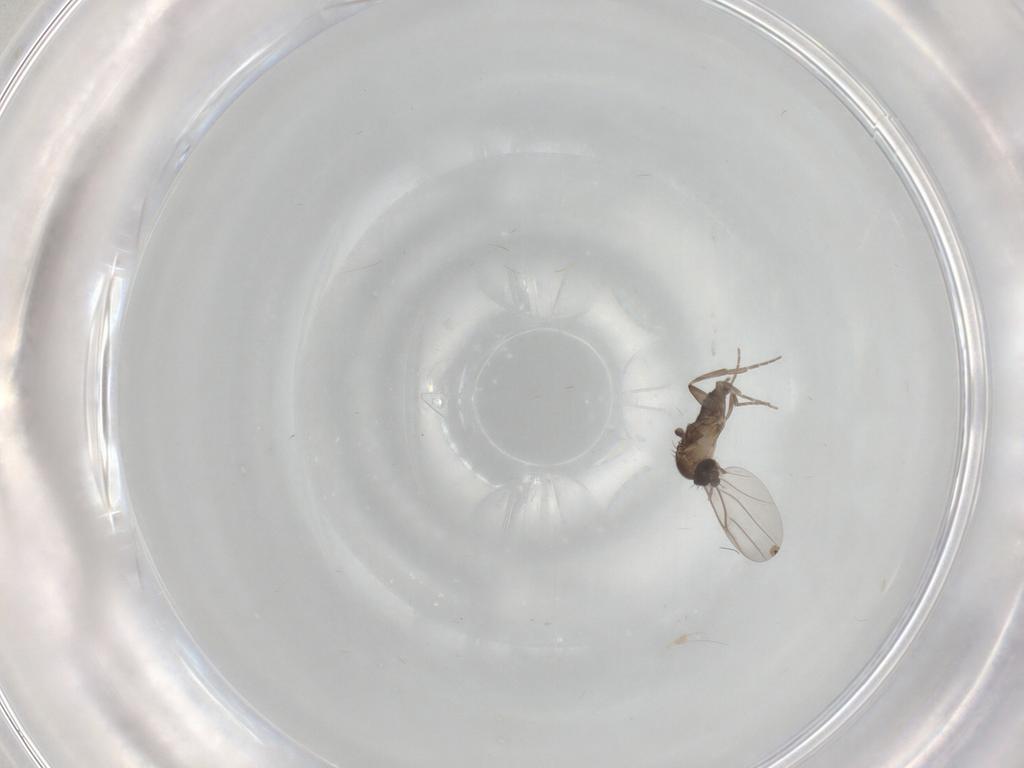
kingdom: Animalia
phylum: Arthropoda
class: Insecta
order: Diptera
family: Phoridae
